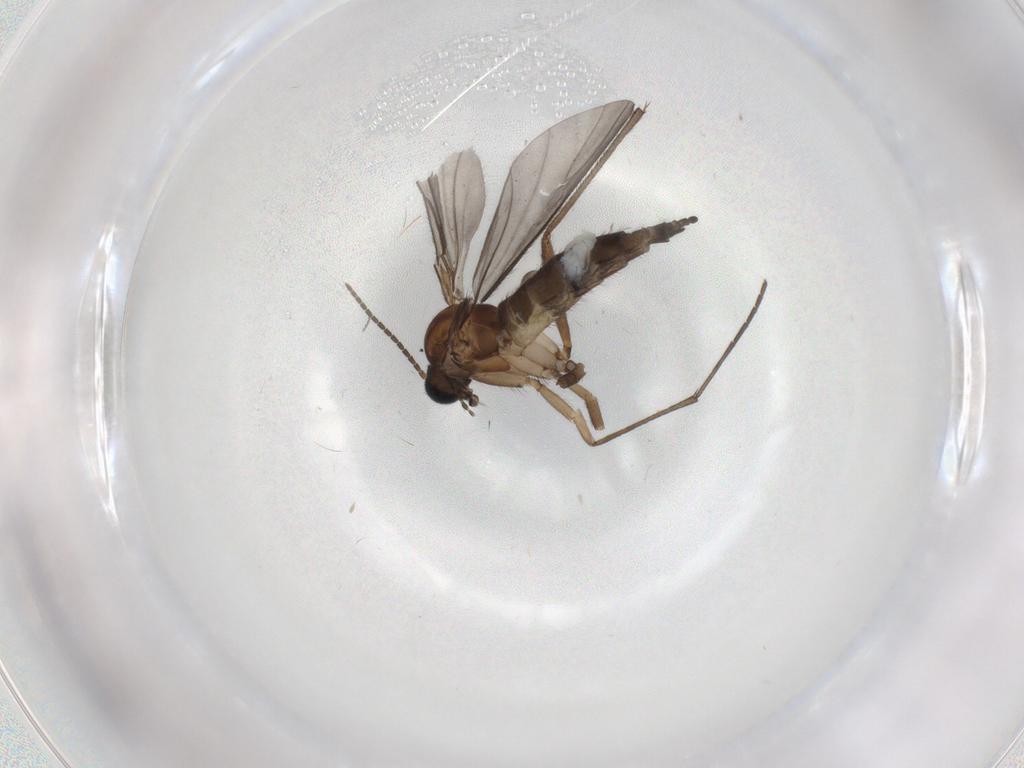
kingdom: Animalia
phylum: Arthropoda
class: Insecta
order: Diptera
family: Sciaridae
